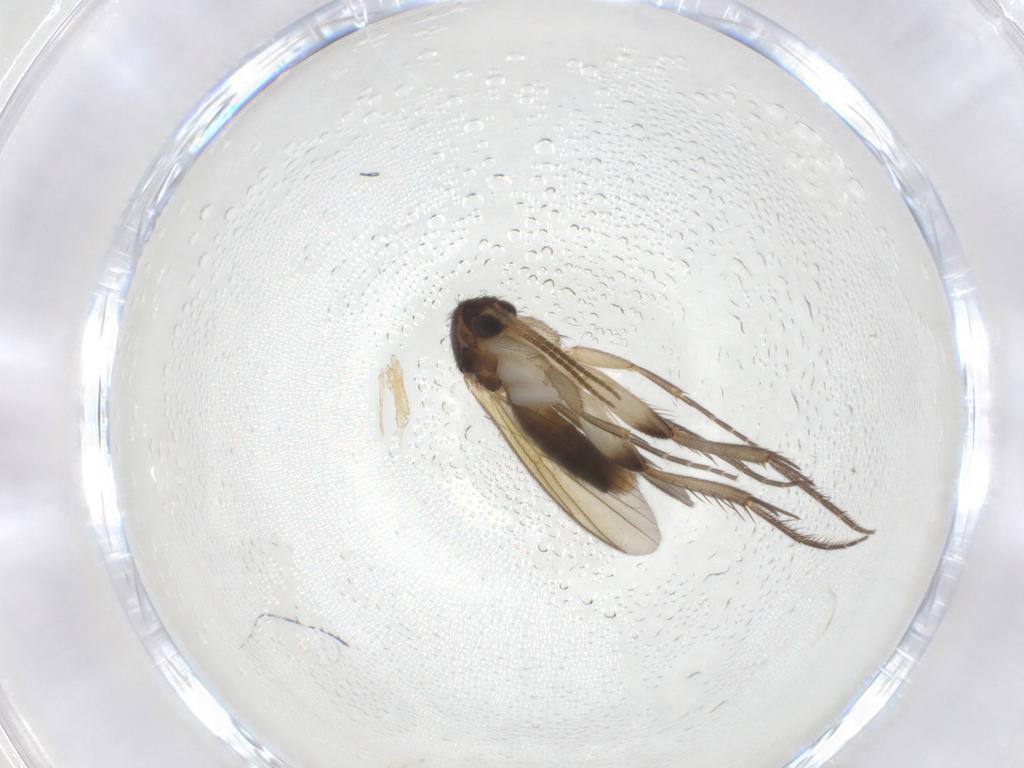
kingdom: Animalia
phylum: Arthropoda
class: Insecta
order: Diptera
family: Mycetophilidae
